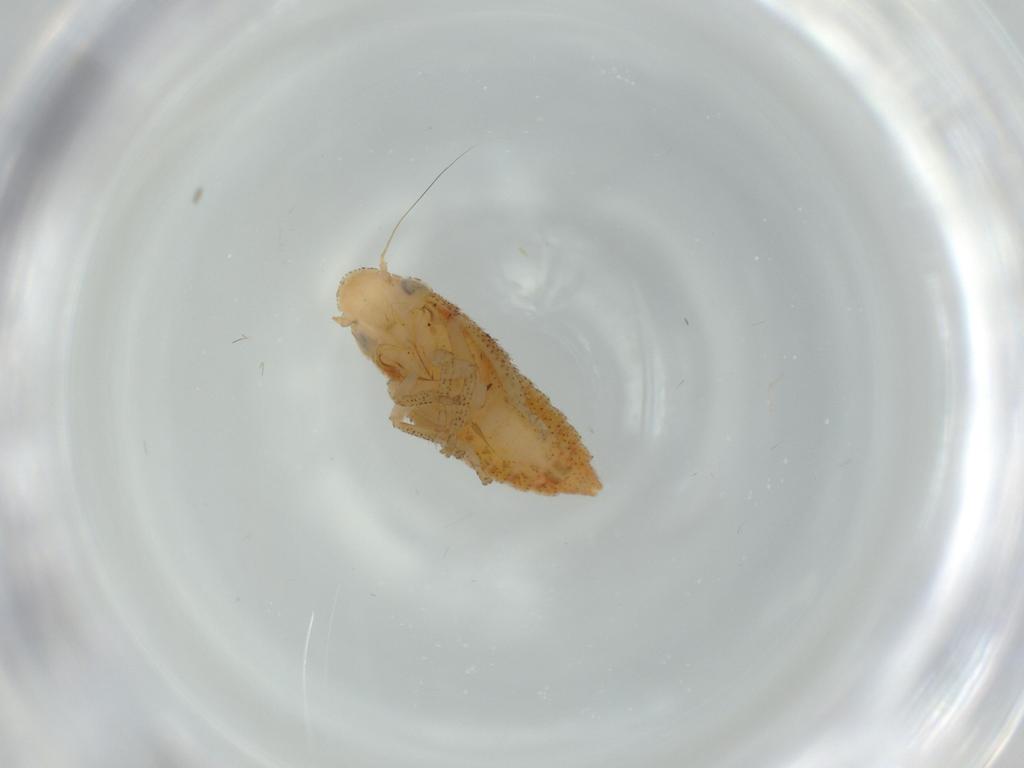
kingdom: Animalia
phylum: Arthropoda
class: Insecta
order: Hemiptera
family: Cicadellidae
